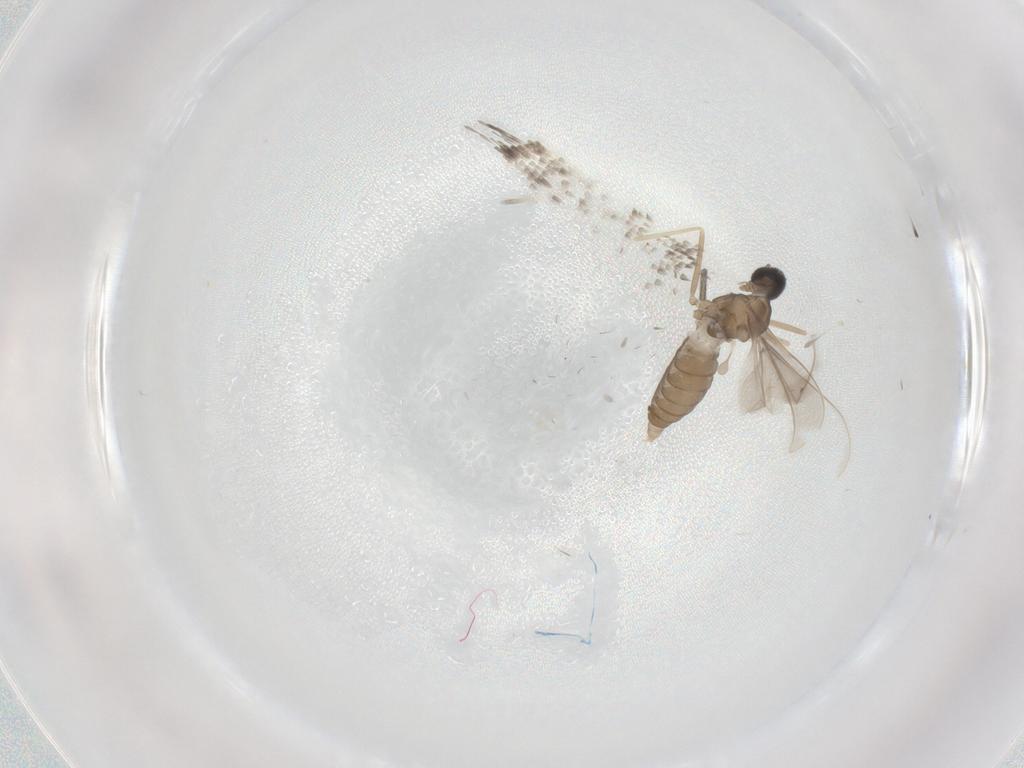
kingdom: Animalia
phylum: Arthropoda
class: Insecta
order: Diptera
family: Cecidomyiidae
